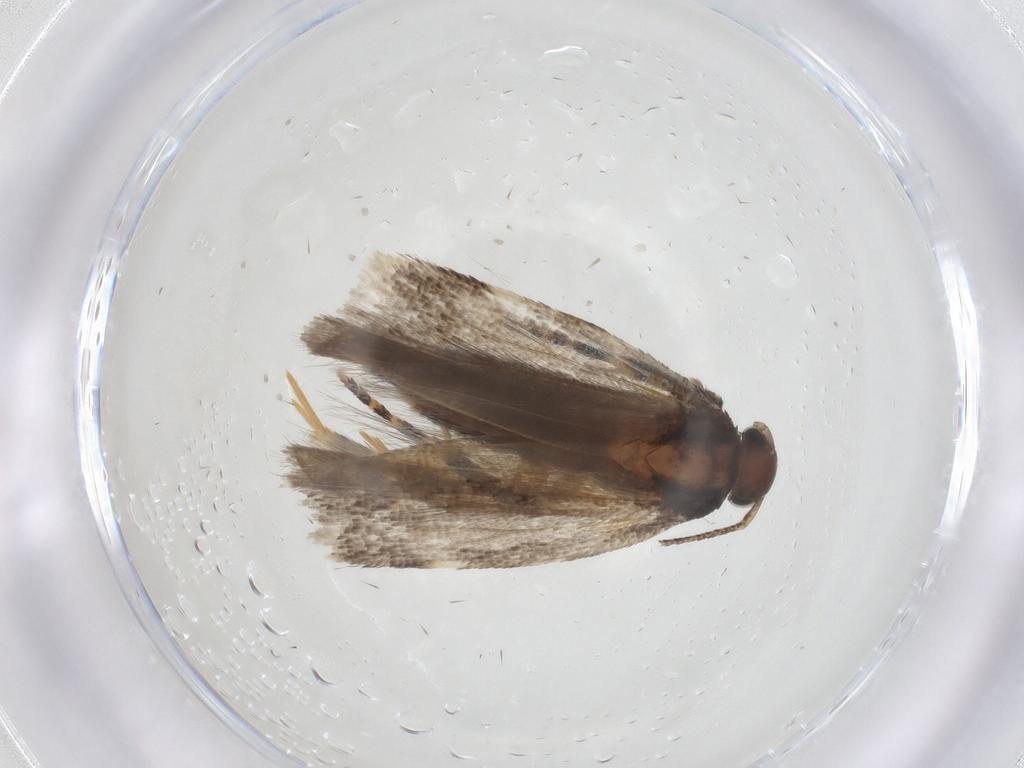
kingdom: Animalia
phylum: Arthropoda
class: Insecta
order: Lepidoptera
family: Gelechiidae
